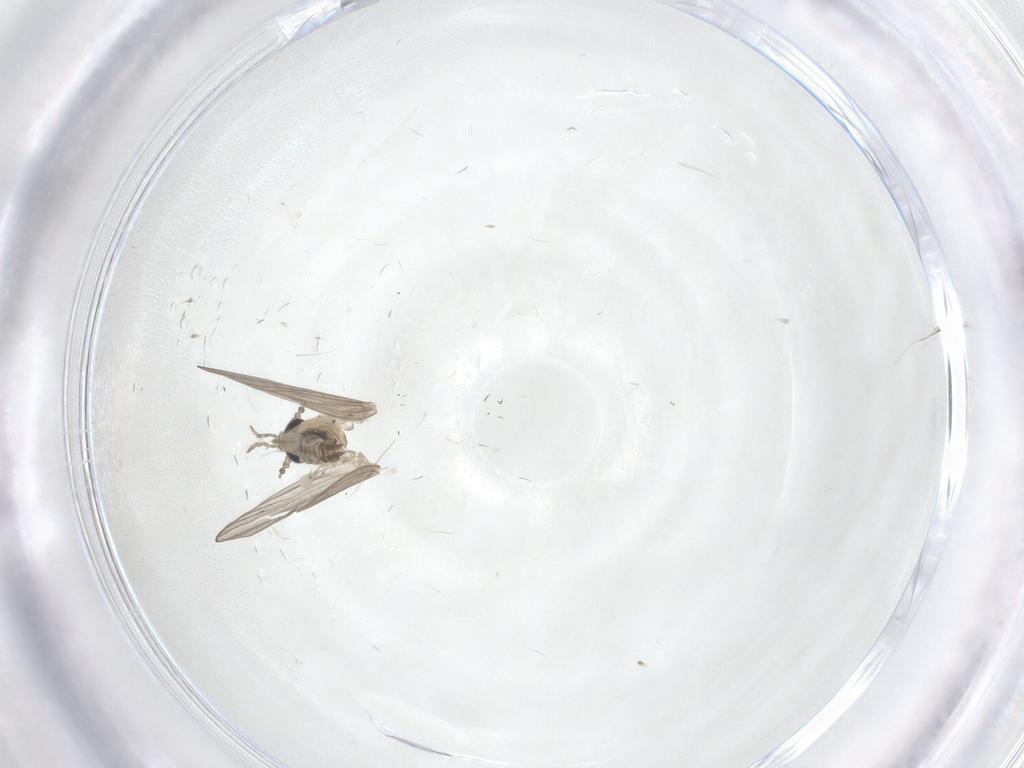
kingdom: Animalia
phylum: Arthropoda
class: Insecta
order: Diptera
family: Psychodidae
